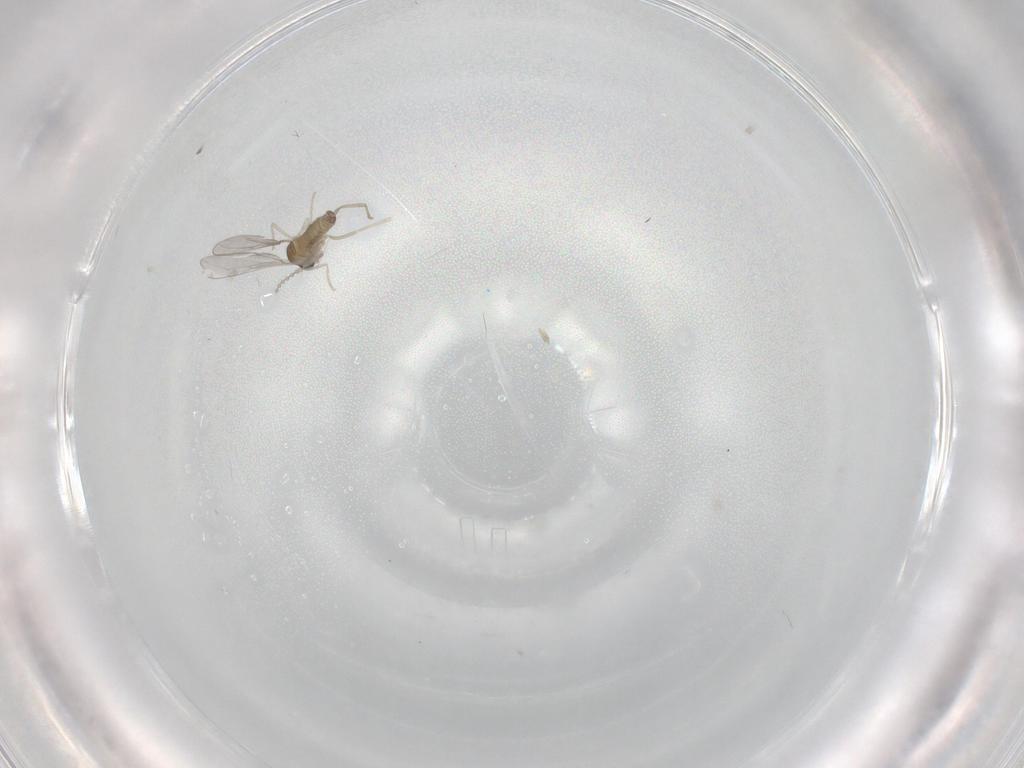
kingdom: Animalia
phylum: Arthropoda
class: Insecta
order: Diptera
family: Cecidomyiidae
